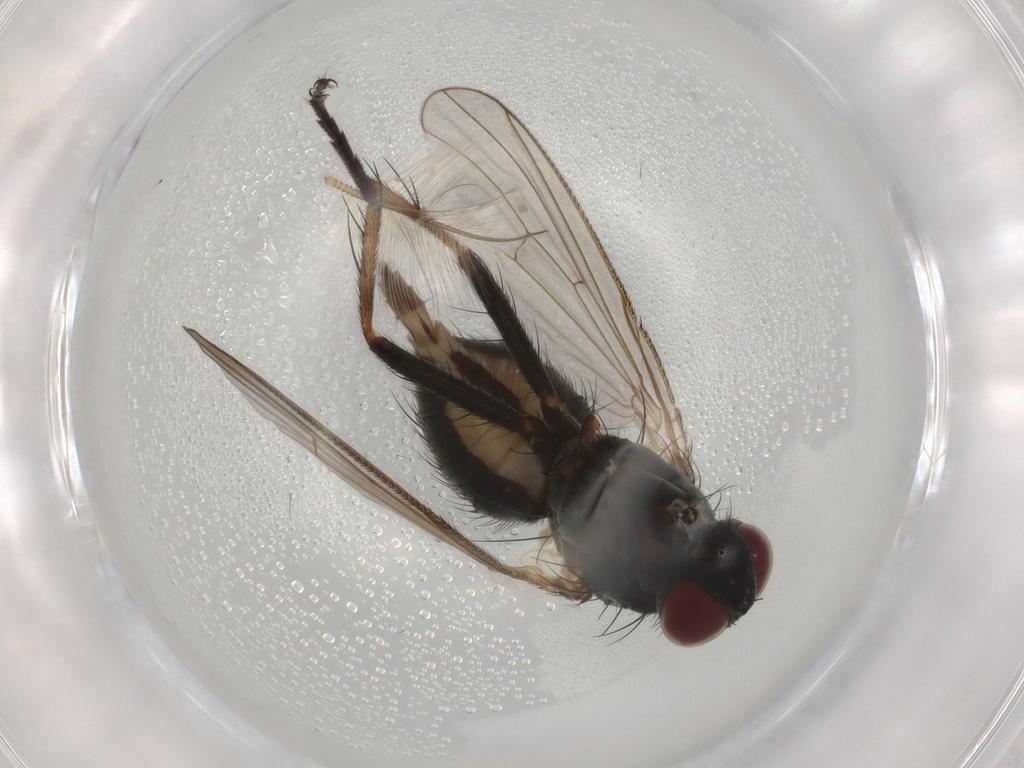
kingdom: Animalia
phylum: Arthropoda
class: Insecta
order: Diptera
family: Chironomidae
